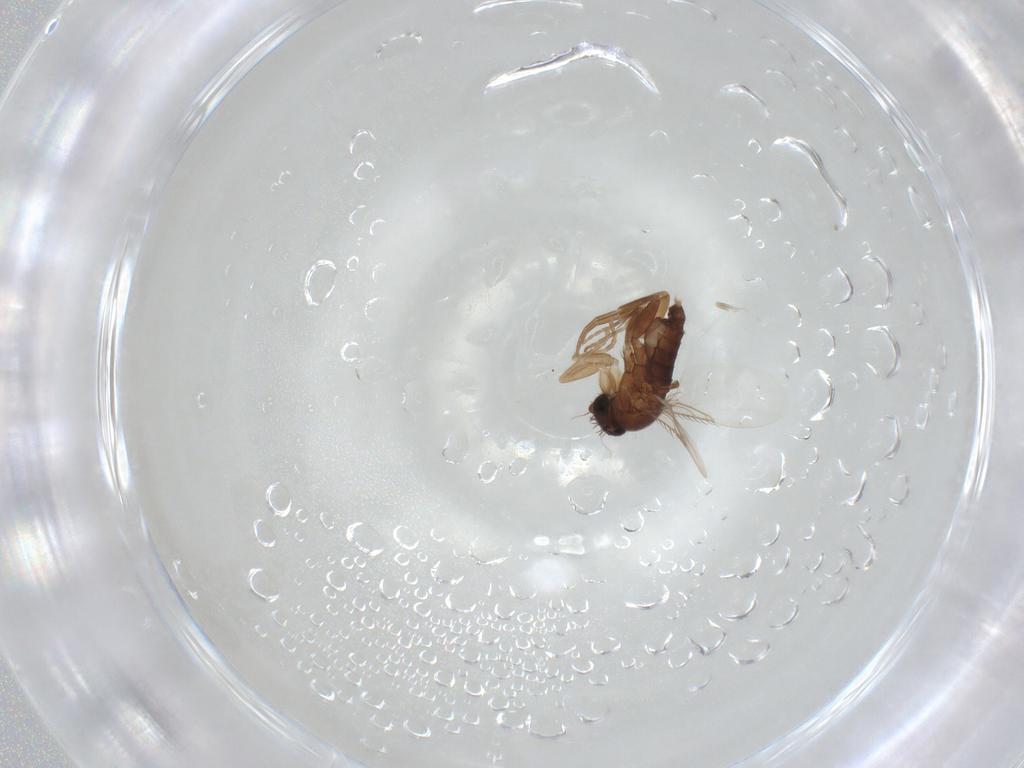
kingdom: Animalia
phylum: Arthropoda
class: Insecta
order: Diptera
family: Phoridae
